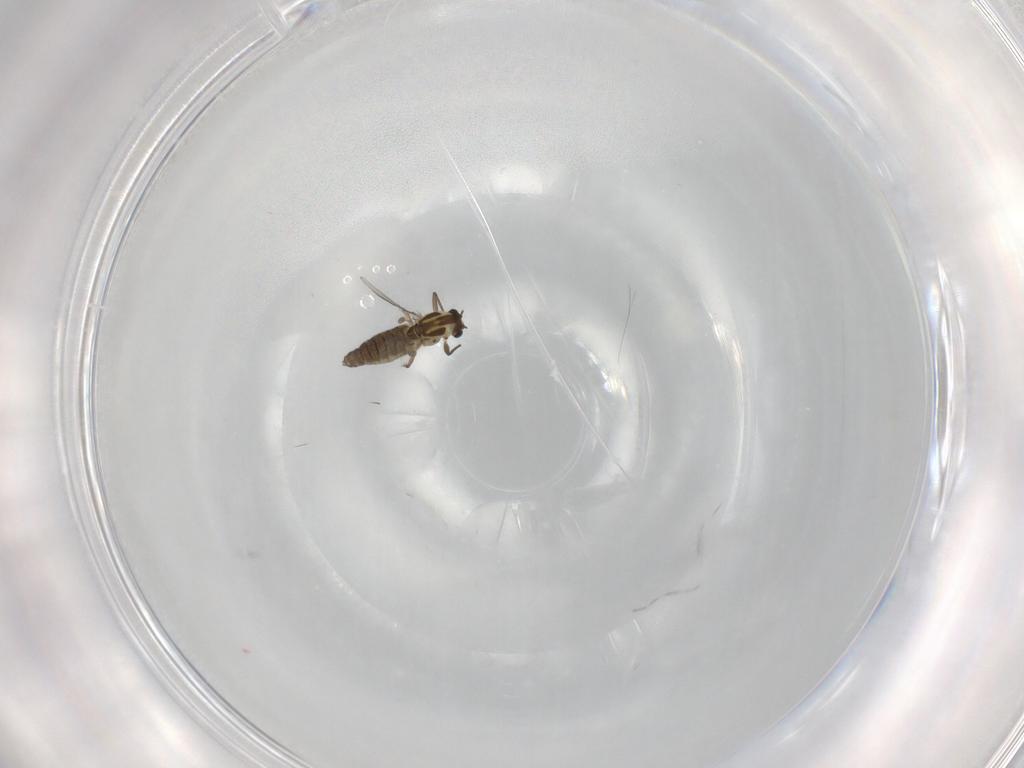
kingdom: Animalia
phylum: Arthropoda
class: Insecta
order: Diptera
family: Chironomidae
